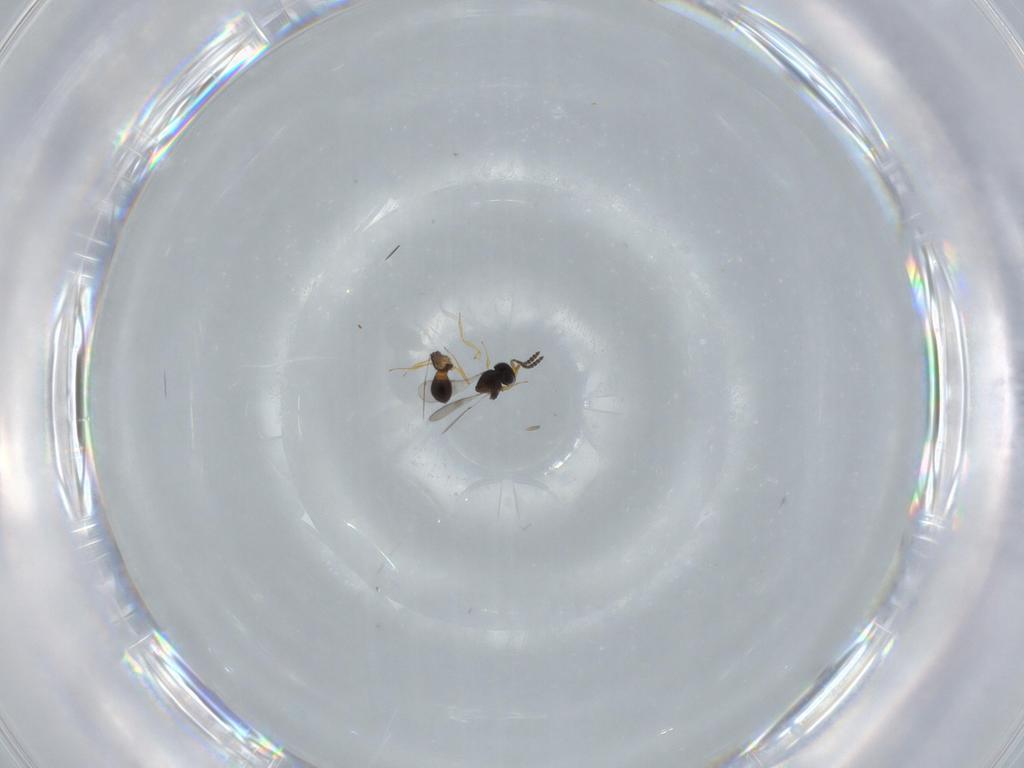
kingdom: Animalia
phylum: Arthropoda
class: Insecta
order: Hymenoptera
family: Scelionidae
